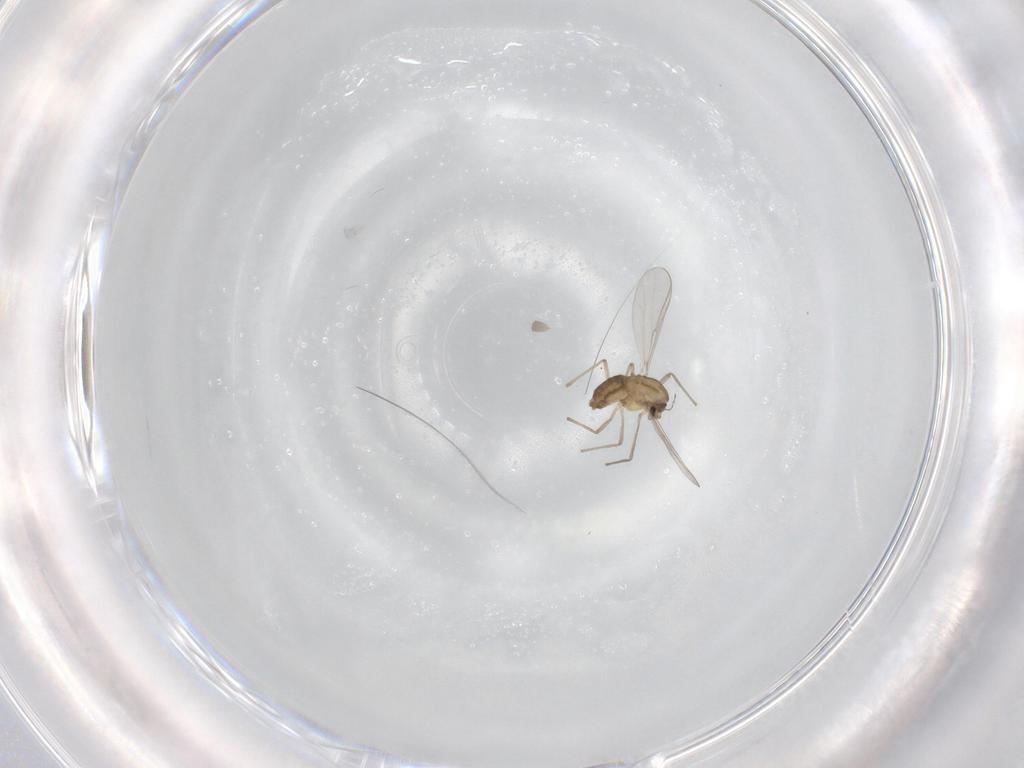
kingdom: Animalia
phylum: Arthropoda
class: Insecta
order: Diptera
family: Chironomidae
